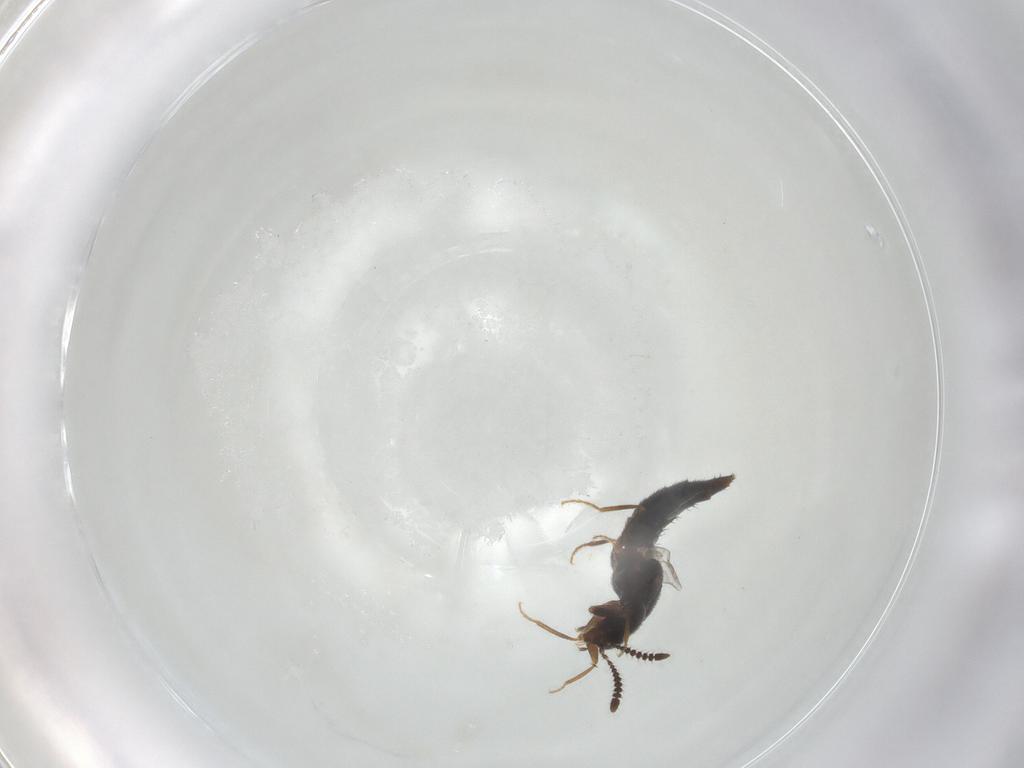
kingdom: Animalia
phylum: Arthropoda
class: Insecta
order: Coleoptera
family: Staphylinidae
